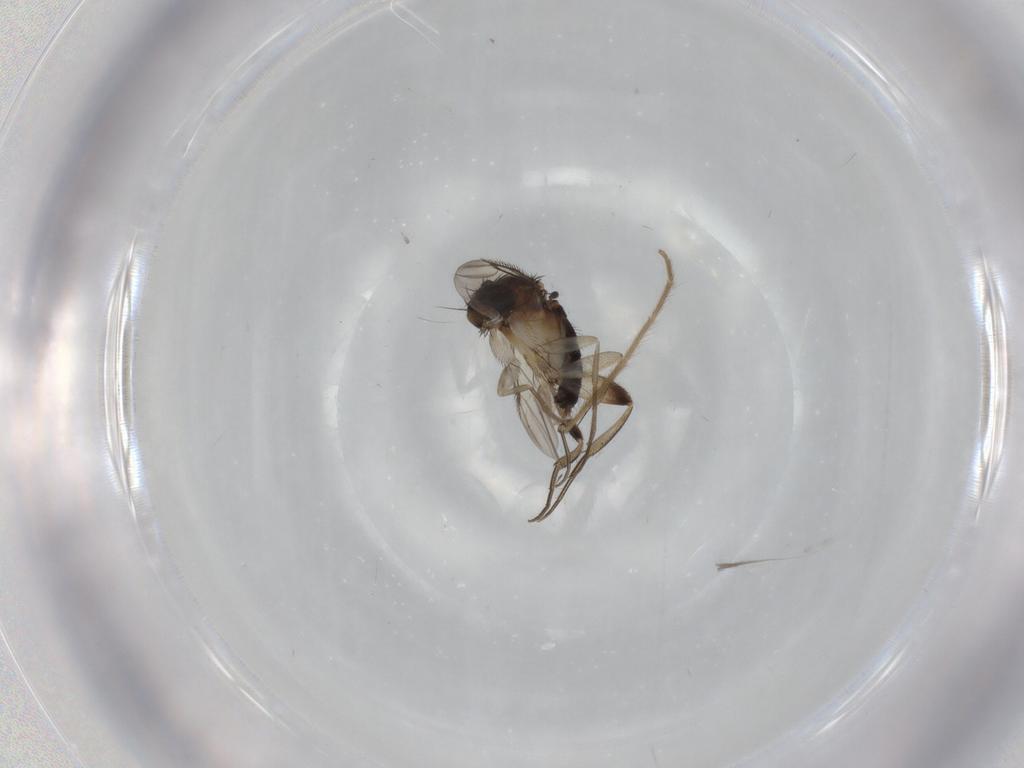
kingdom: Animalia
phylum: Arthropoda
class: Insecta
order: Diptera
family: Phoridae
